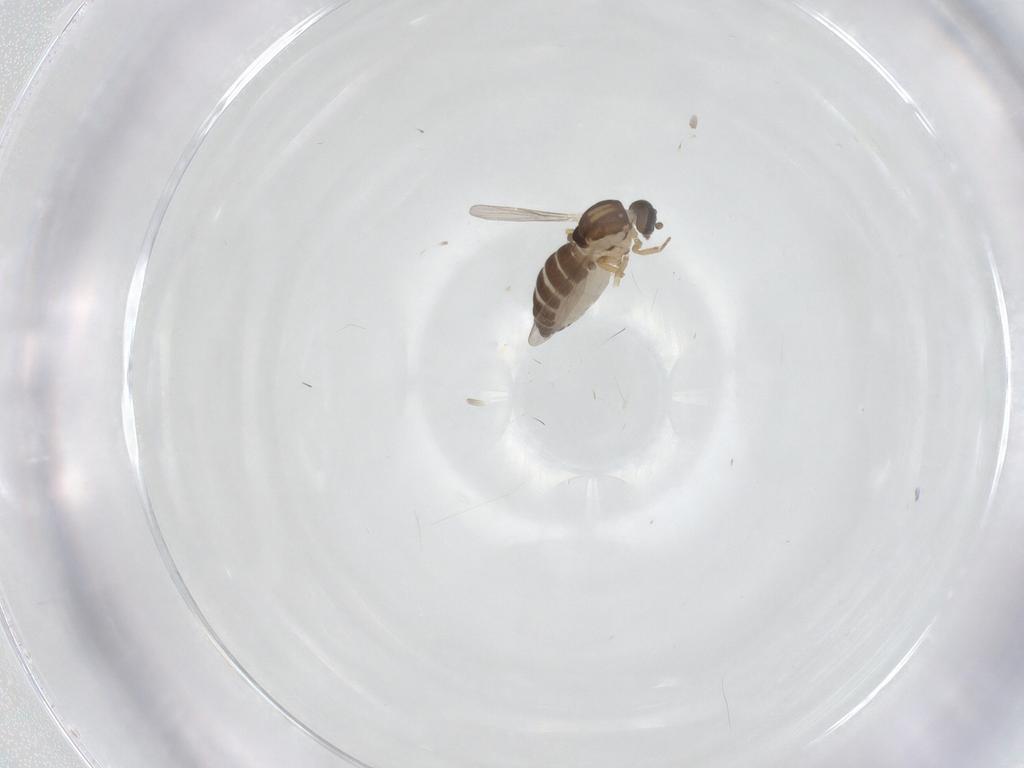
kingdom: Animalia
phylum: Arthropoda
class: Insecta
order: Diptera
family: Ceratopogonidae
